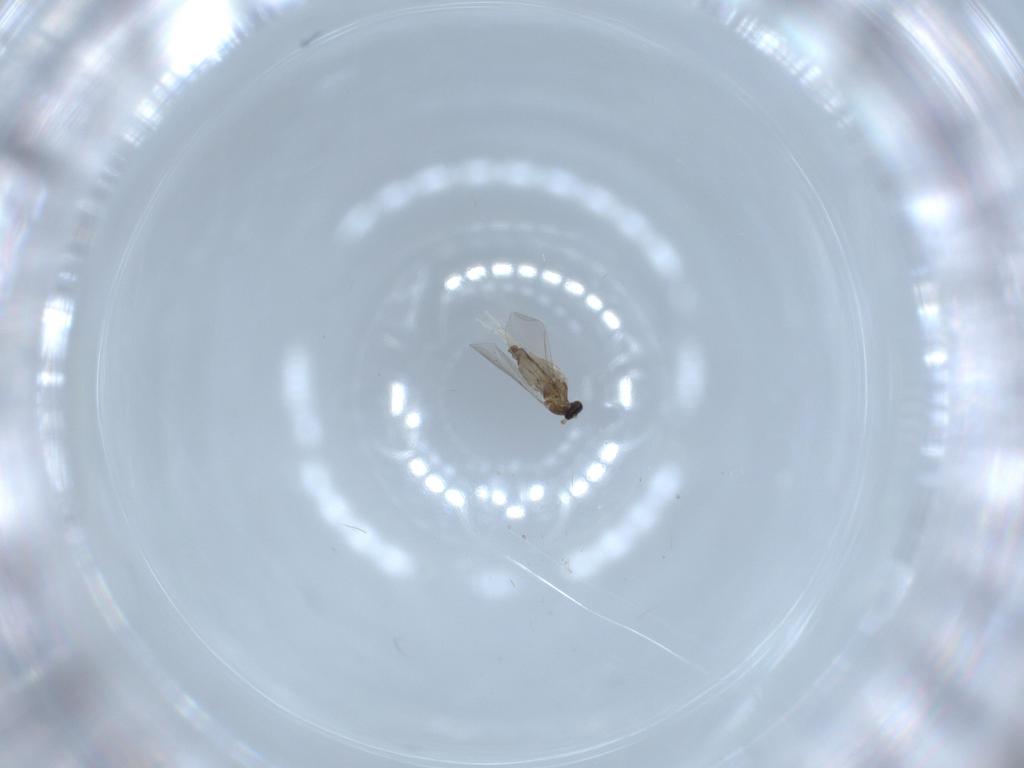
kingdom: Animalia
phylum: Arthropoda
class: Insecta
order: Diptera
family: Cecidomyiidae
